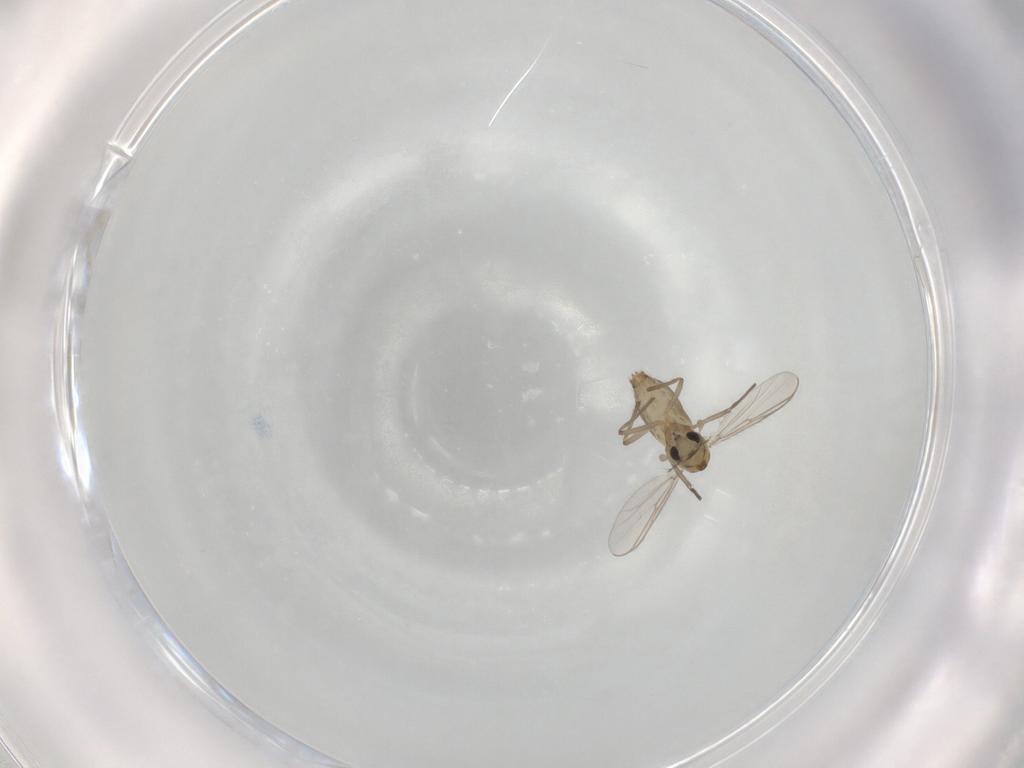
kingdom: Animalia
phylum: Arthropoda
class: Insecta
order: Diptera
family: Chironomidae
